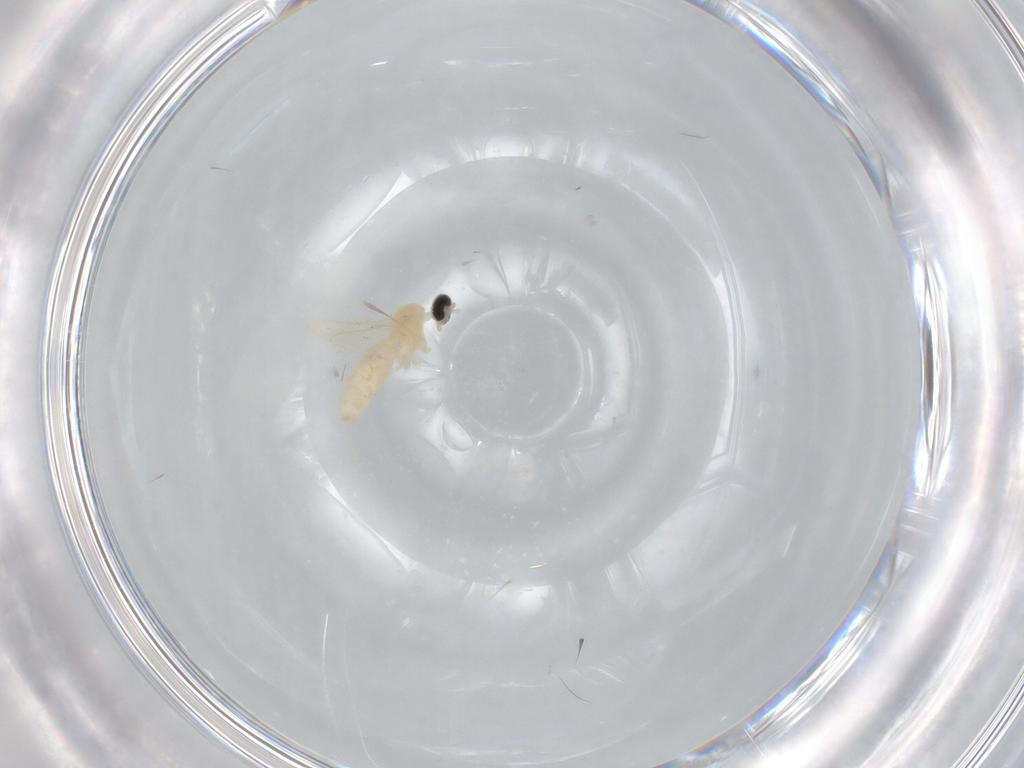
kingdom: Animalia
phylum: Arthropoda
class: Insecta
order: Diptera
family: Cecidomyiidae
